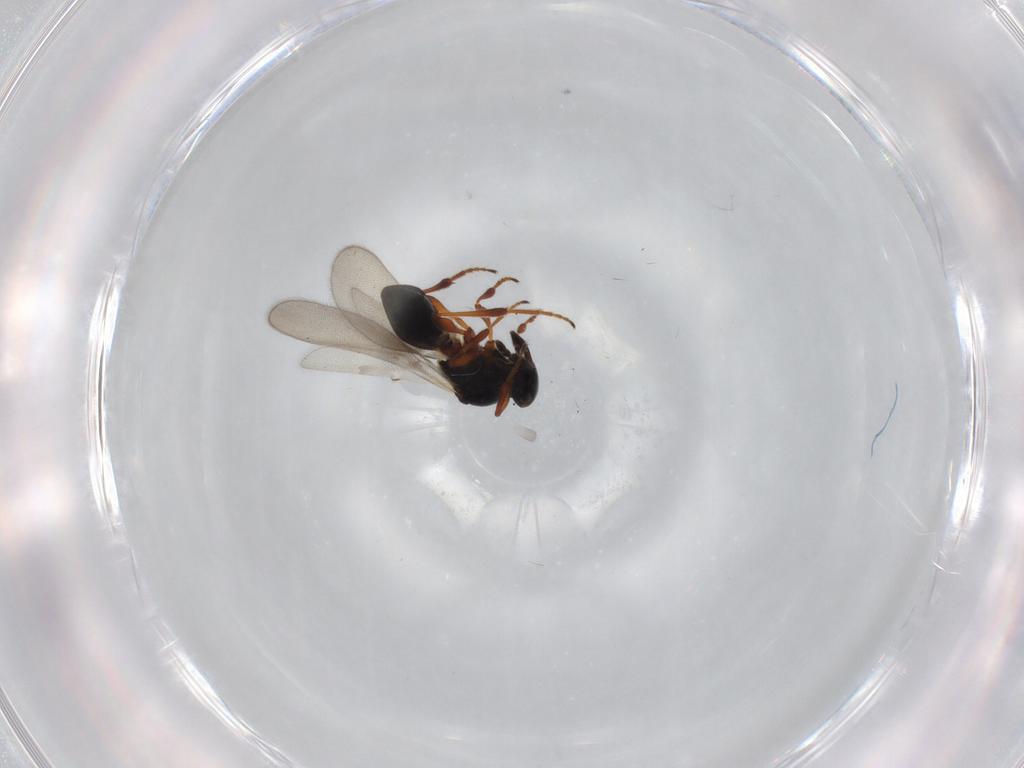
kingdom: Animalia
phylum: Arthropoda
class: Insecta
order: Hymenoptera
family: Platygastridae
